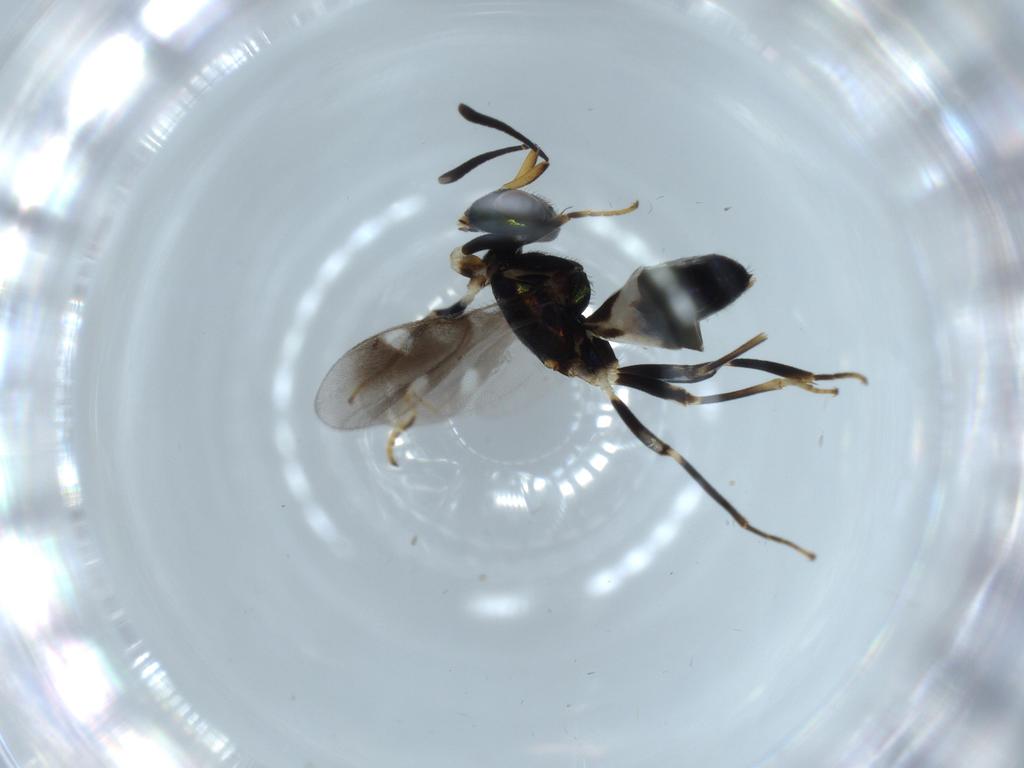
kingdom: Animalia
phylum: Arthropoda
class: Insecta
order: Hymenoptera
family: Eupelmidae
